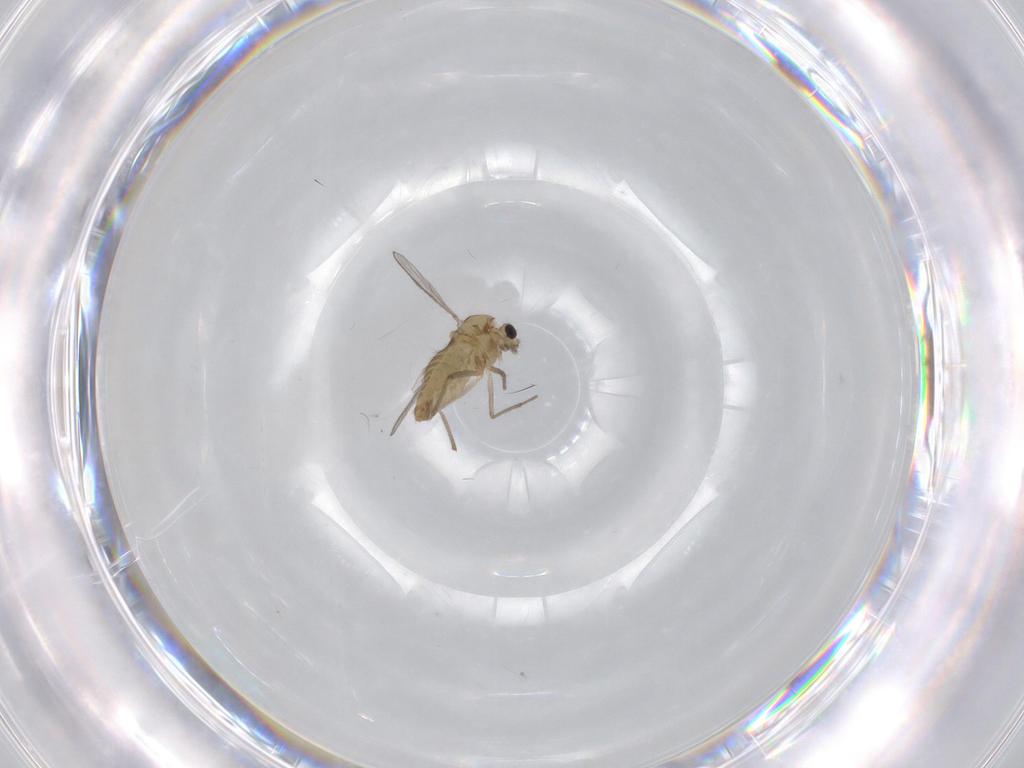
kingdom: Animalia
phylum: Arthropoda
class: Insecta
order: Diptera
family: Chironomidae
